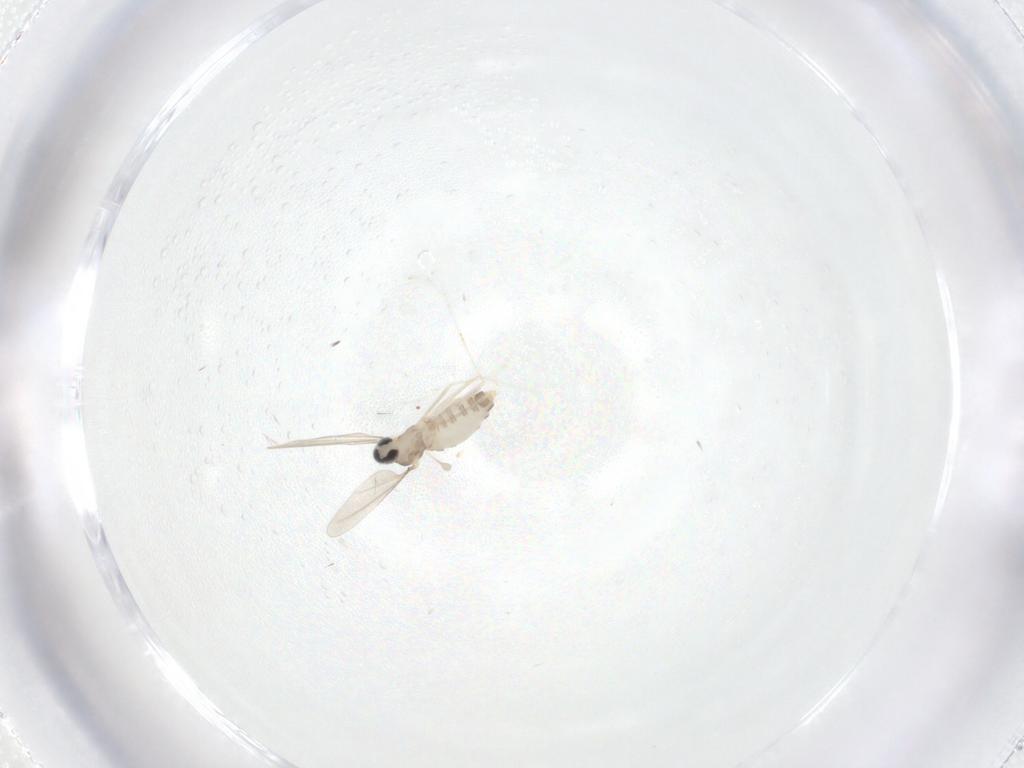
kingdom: Animalia
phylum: Arthropoda
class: Insecta
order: Diptera
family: Cecidomyiidae
